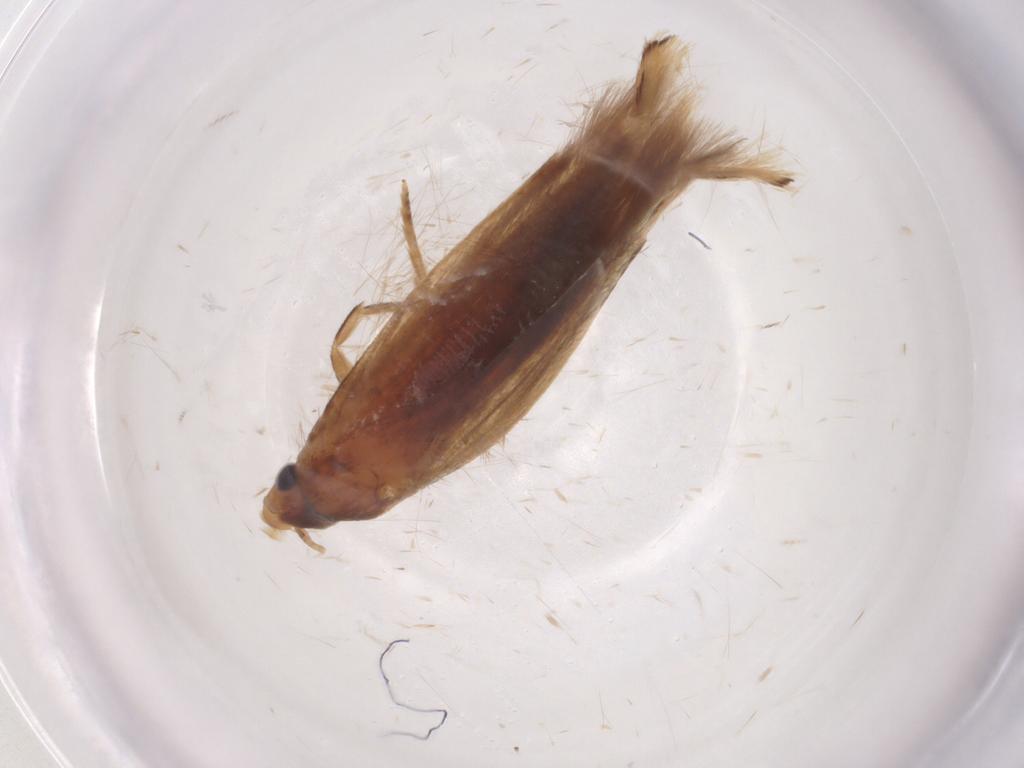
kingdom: Animalia
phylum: Arthropoda
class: Insecta
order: Lepidoptera
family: Tineidae
